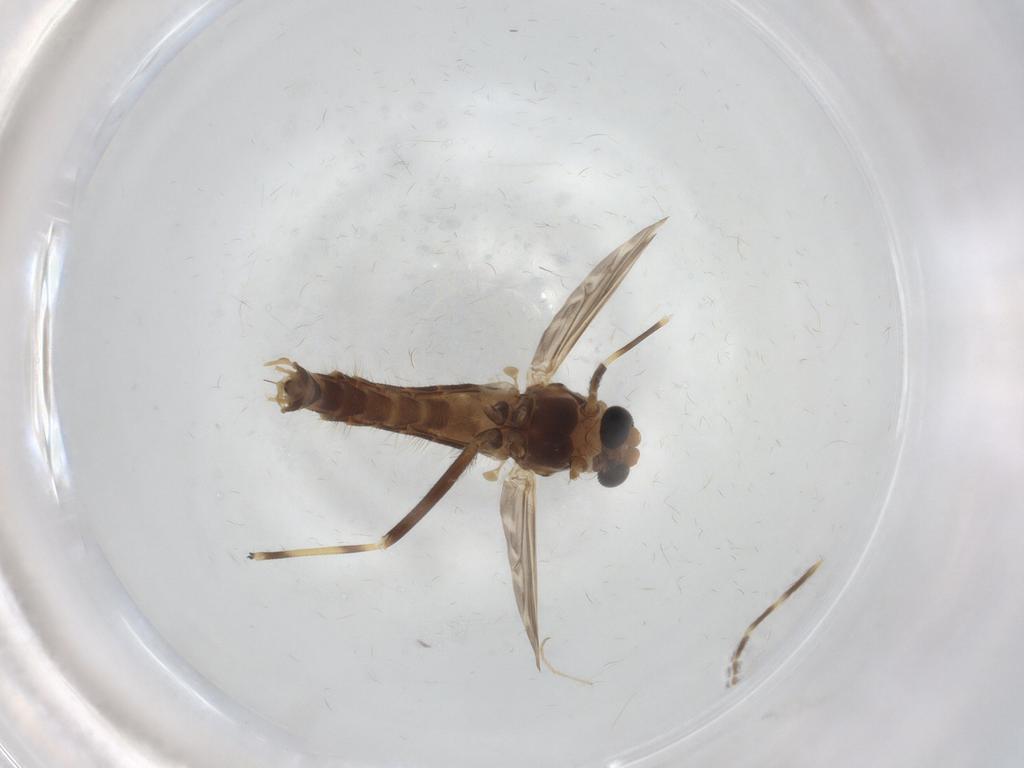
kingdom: Animalia
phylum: Arthropoda
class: Insecta
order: Diptera
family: Chironomidae
